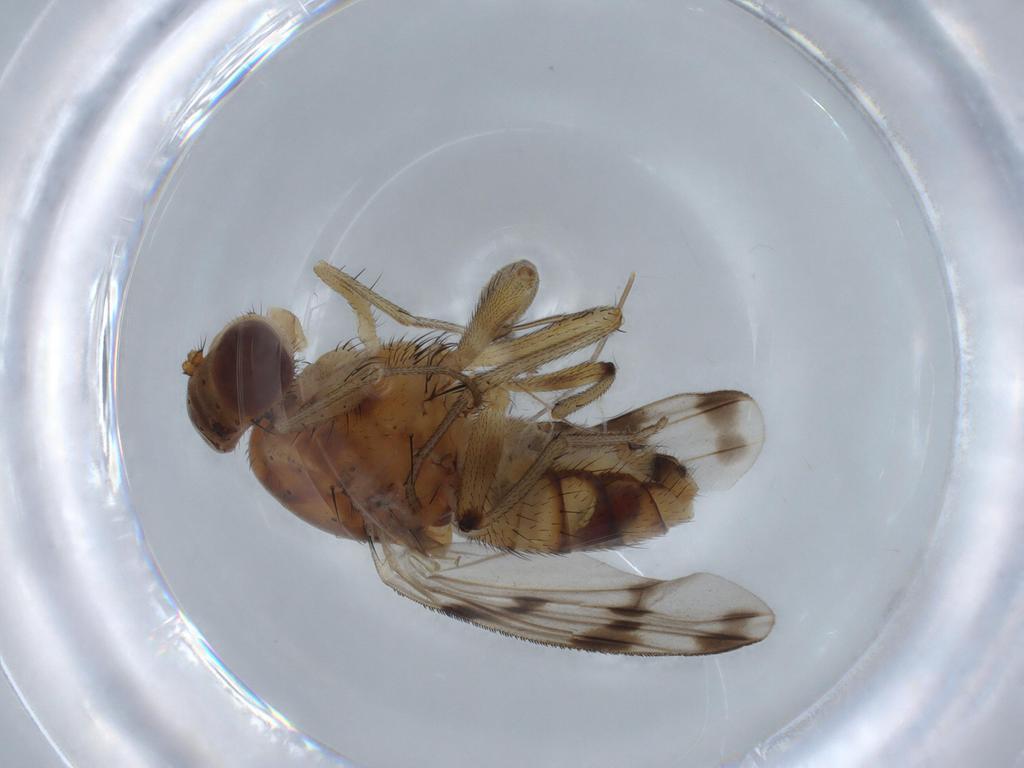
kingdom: Animalia
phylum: Arthropoda
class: Insecta
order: Diptera
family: Lauxaniidae
